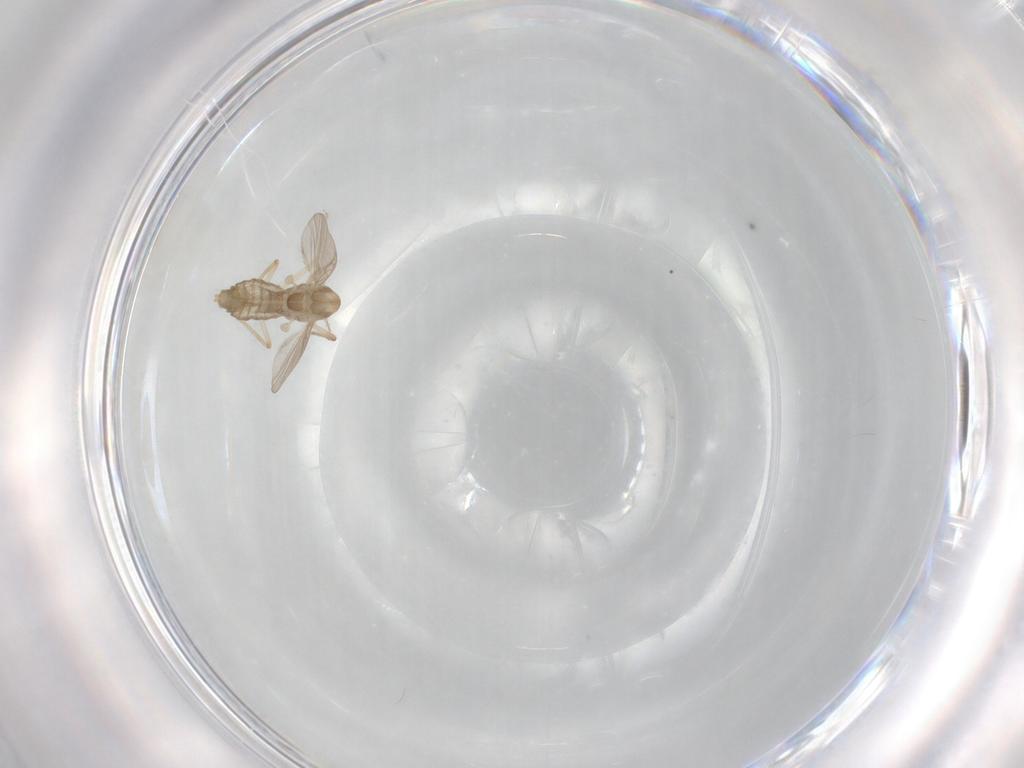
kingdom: Animalia
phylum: Arthropoda
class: Insecta
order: Diptera
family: Chironomidae
